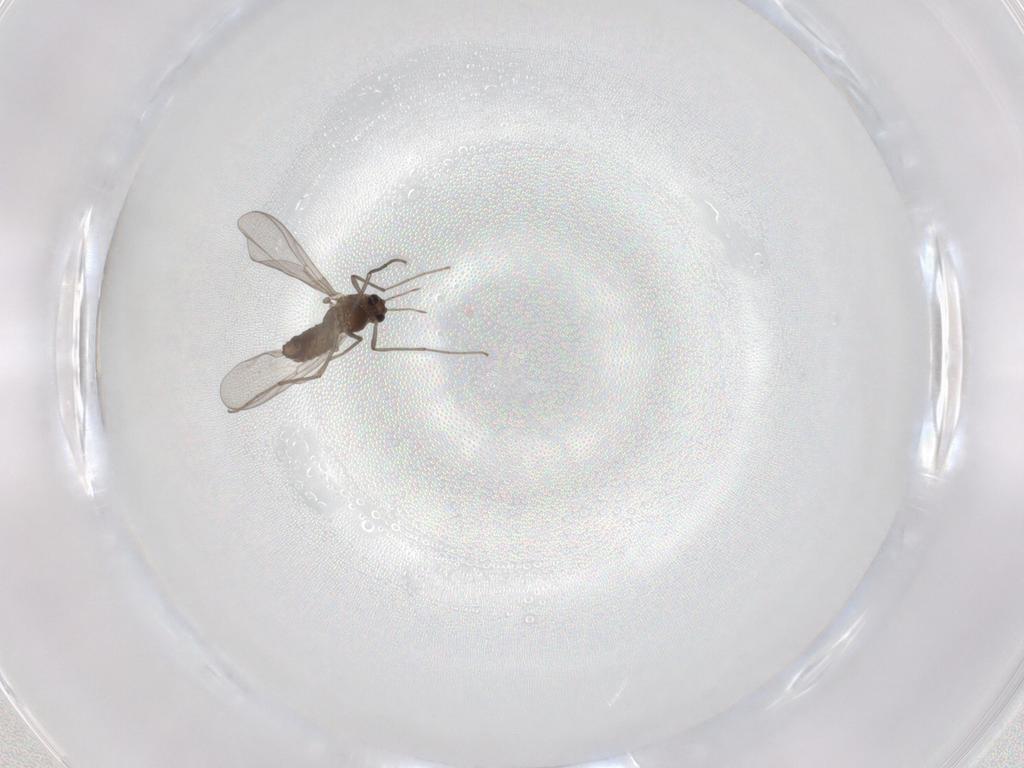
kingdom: Animalia
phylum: Arthropoda
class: Insecta
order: Diptera
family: Chironomidae
